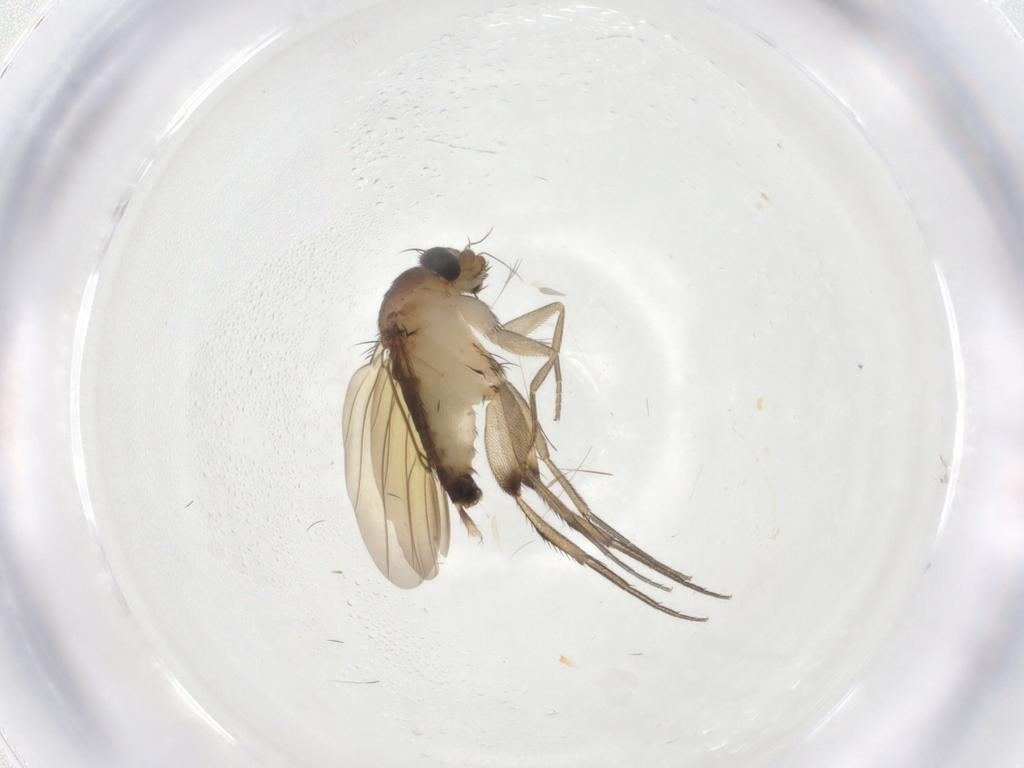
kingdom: Animalia
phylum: Arthropoda
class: Insecta
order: Diptera
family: Phoridae
